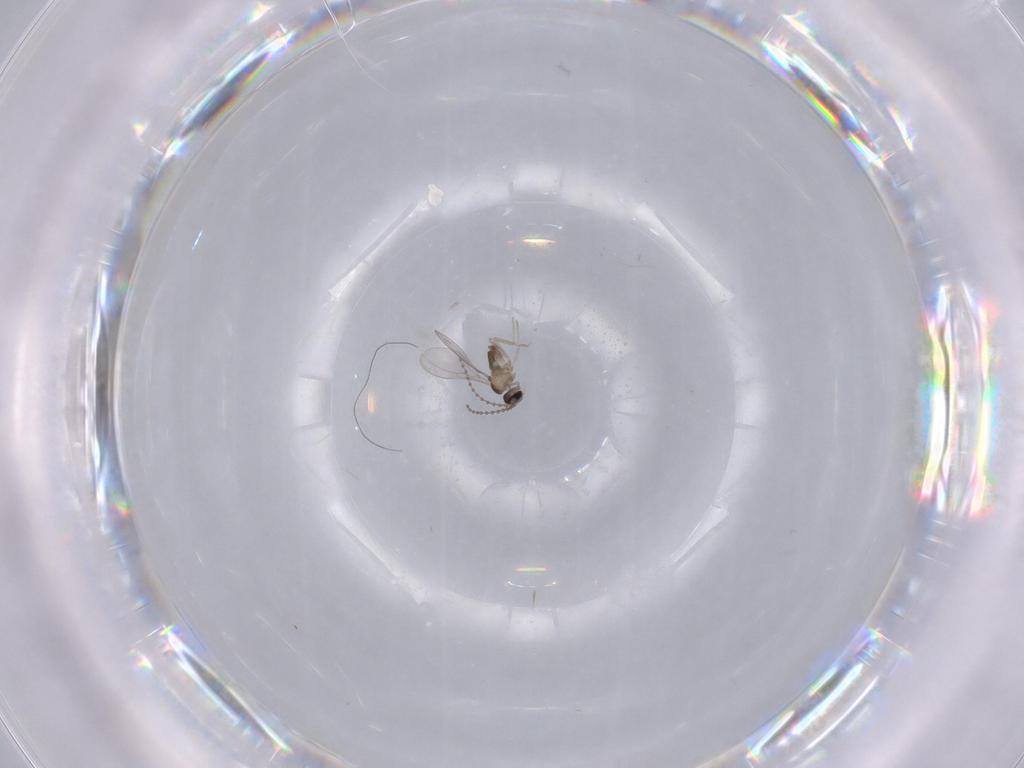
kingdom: Animalia
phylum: Arthropoda
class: Insecta
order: Diptera
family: Cecidomyiidae
